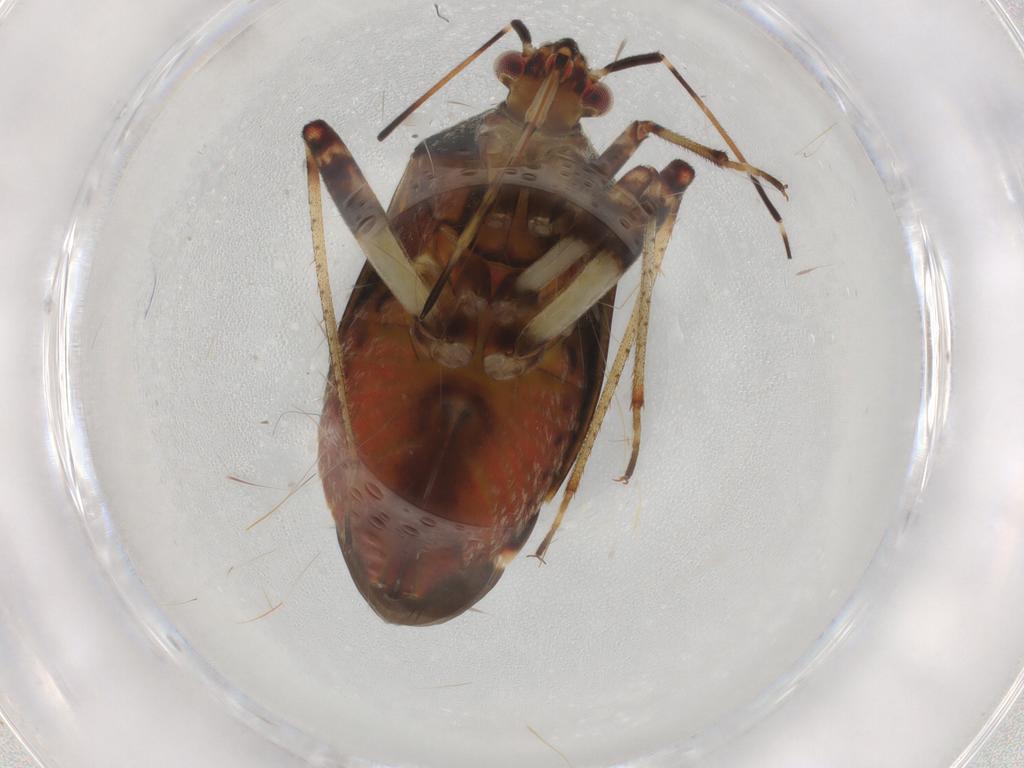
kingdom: Animalia
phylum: Arthropoda
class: Insecta
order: Hemiptera
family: Miridae
